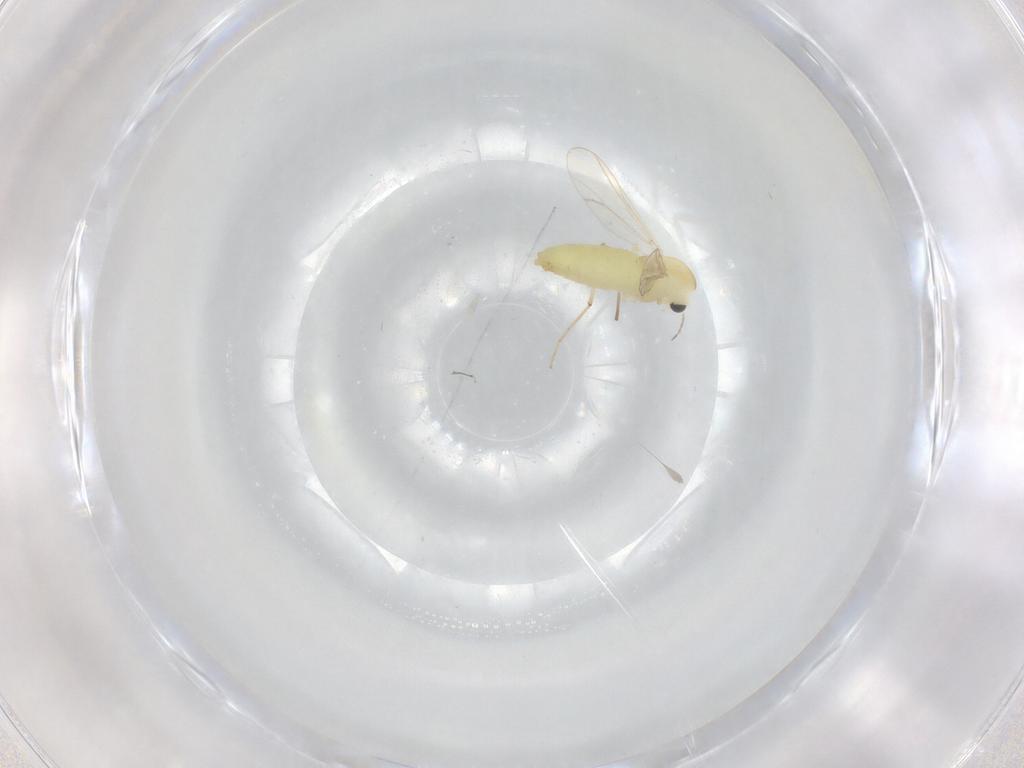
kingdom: Animalia
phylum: Arthropoda
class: Insecta
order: Diptera
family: Chironomidae
